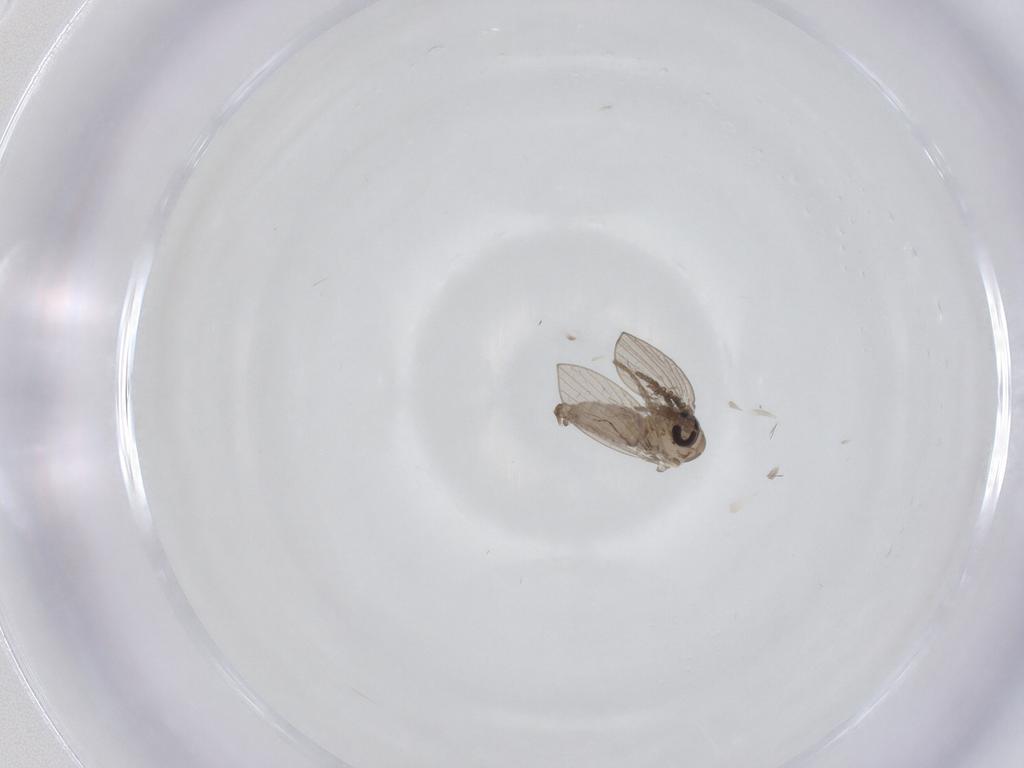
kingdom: Animalia
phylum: Arthropoda
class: Insecta
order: Diptera
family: Psychodidae
